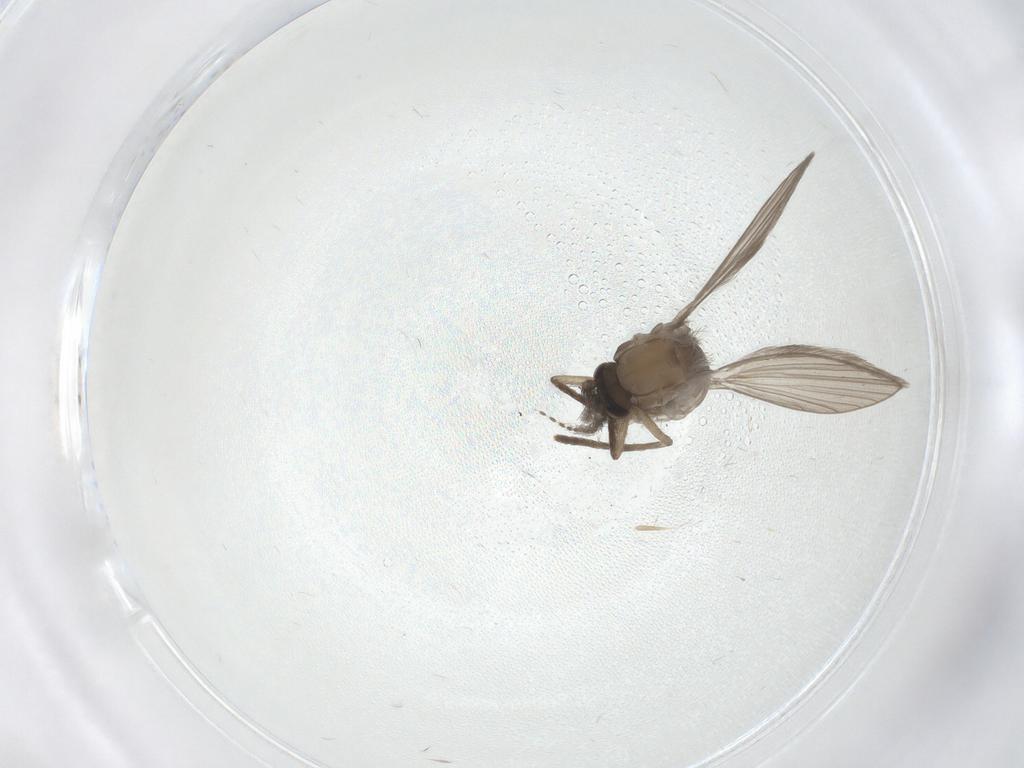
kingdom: Animalia
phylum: Arthropoda
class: Insecta
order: Diptera
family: Psychodidae
